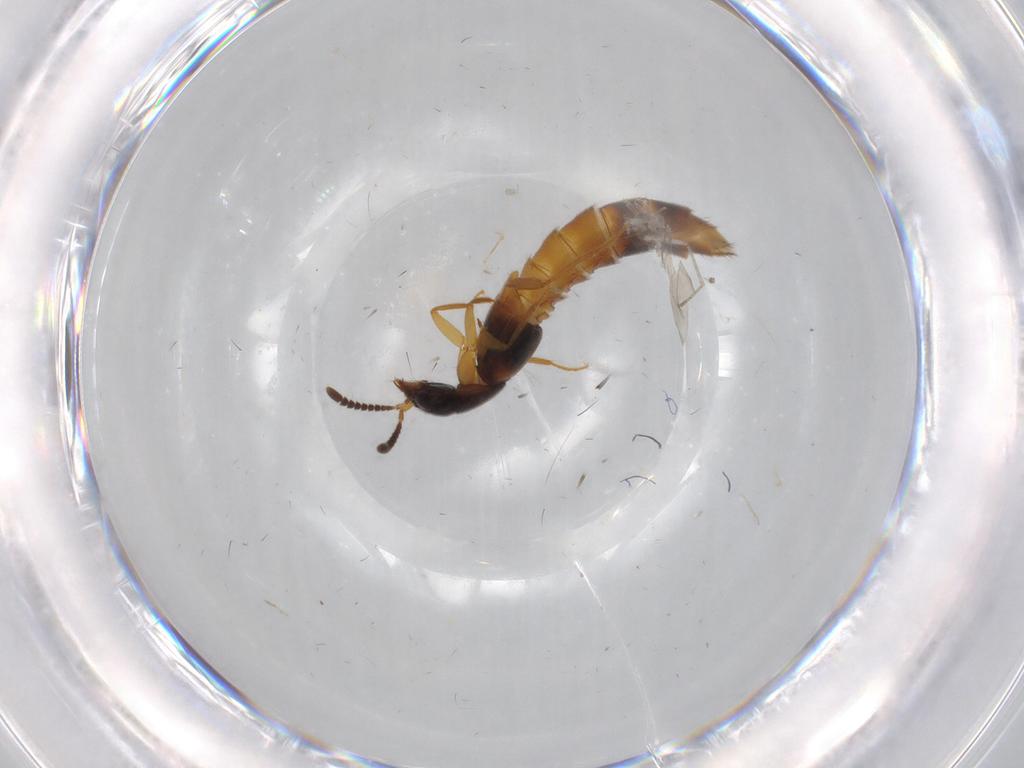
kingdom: Animalia
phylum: Arthropoda
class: Insecta
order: Coleoptera
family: Staphylinidae
